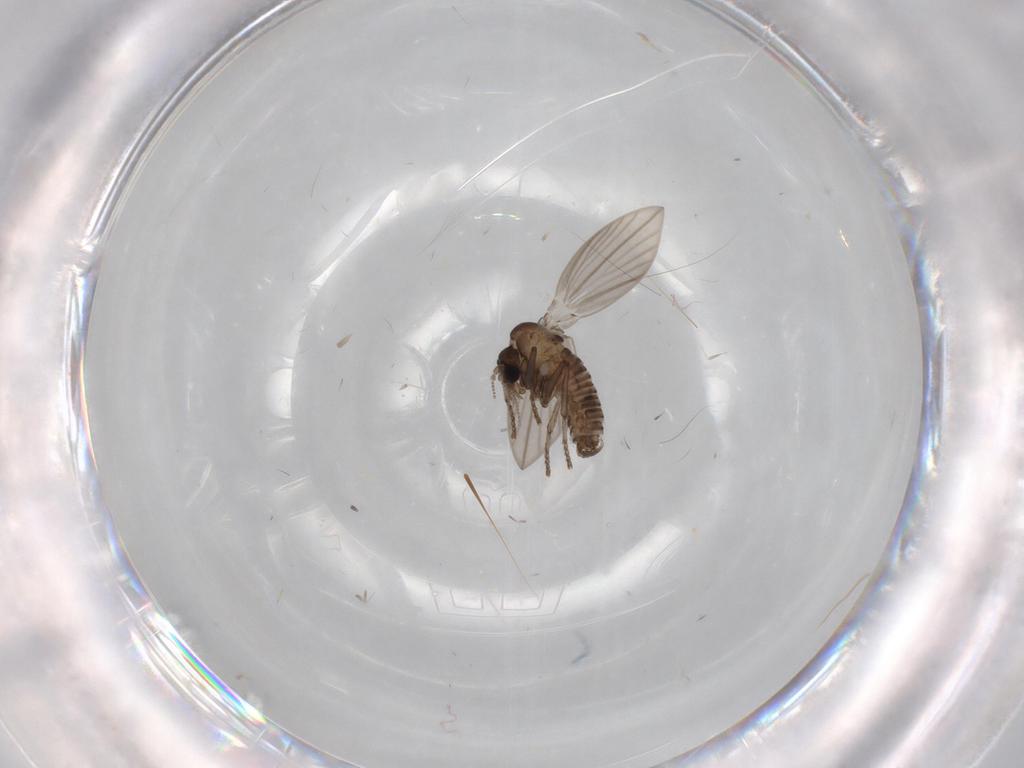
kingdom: Animalia
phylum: Arthropoda
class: Insecta
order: Diptera
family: Psychodidae
